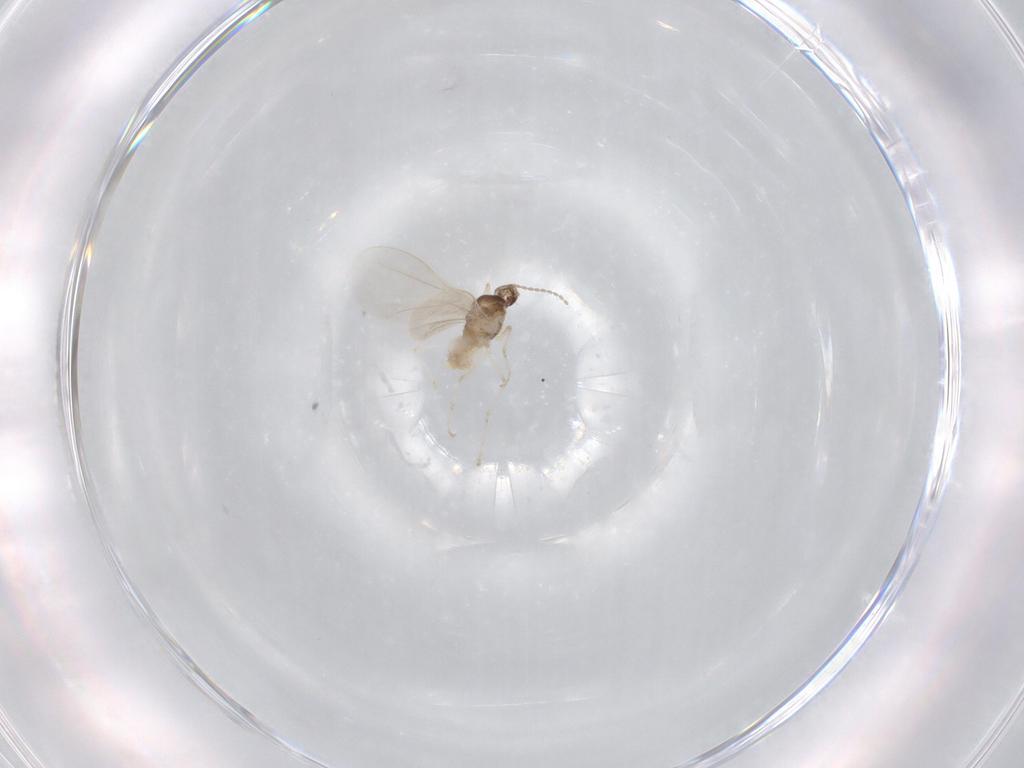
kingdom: Animalia
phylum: Arthropoda
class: Insecta
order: Diptera
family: Cecidomyiidae
